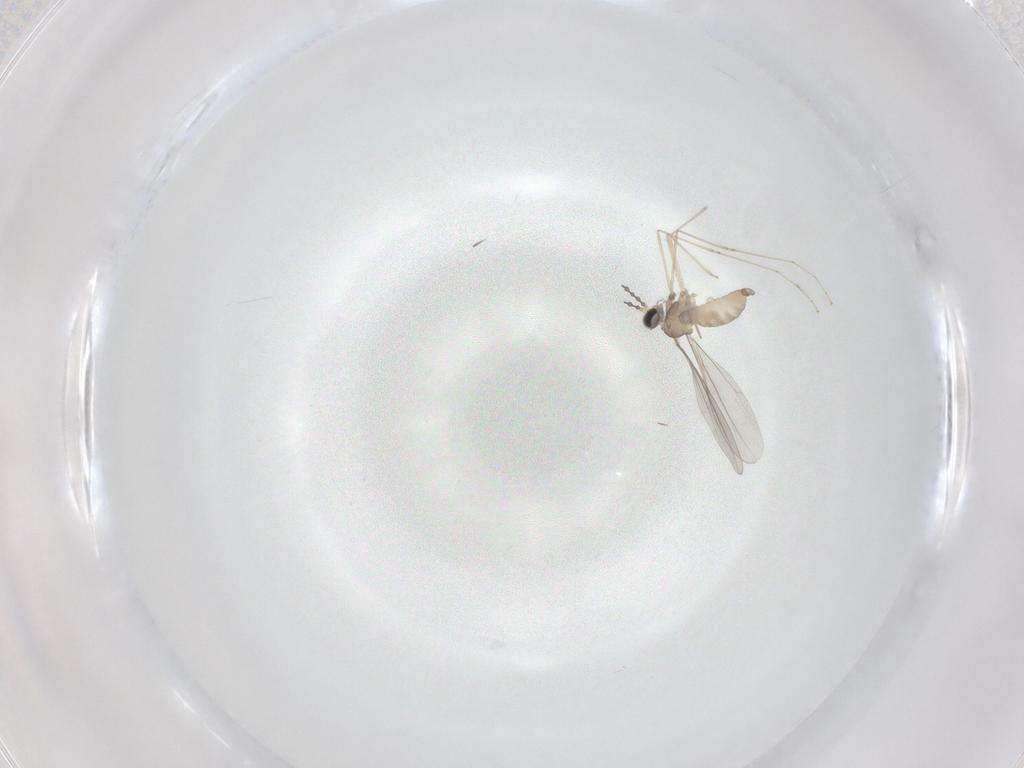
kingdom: Animalia
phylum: Arthropoda
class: Insecta
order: Diptera
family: Cecidomyiidae
